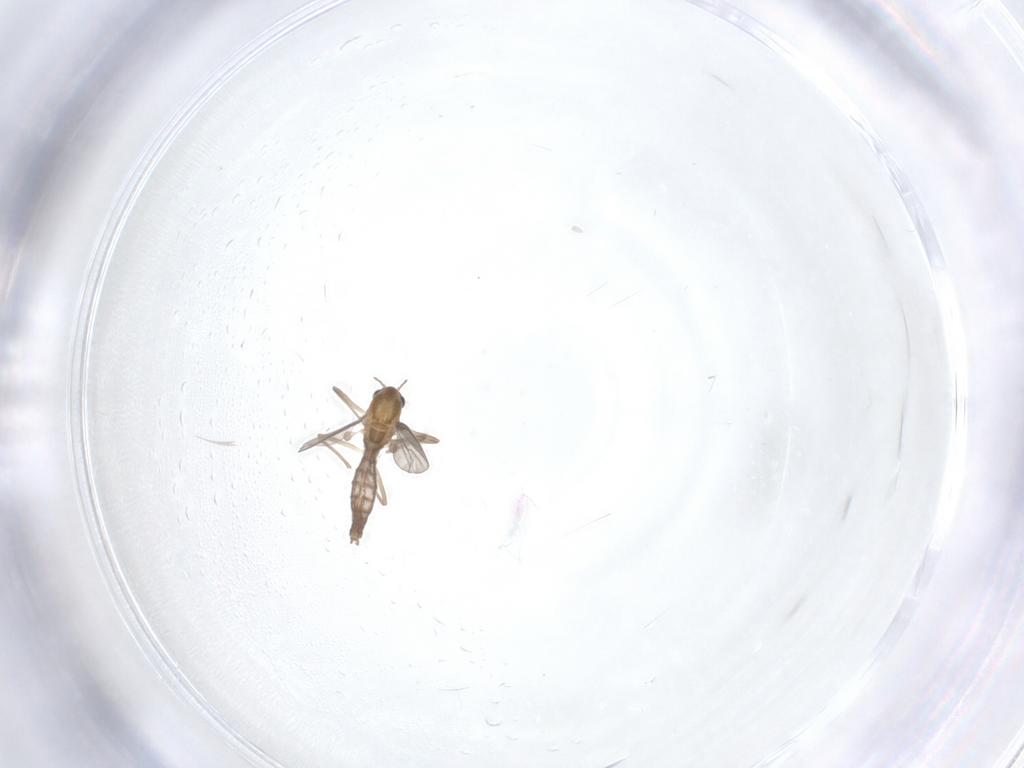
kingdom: Animalia
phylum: Arthropoda
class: Insecta
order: Diptera
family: Chironomidae
